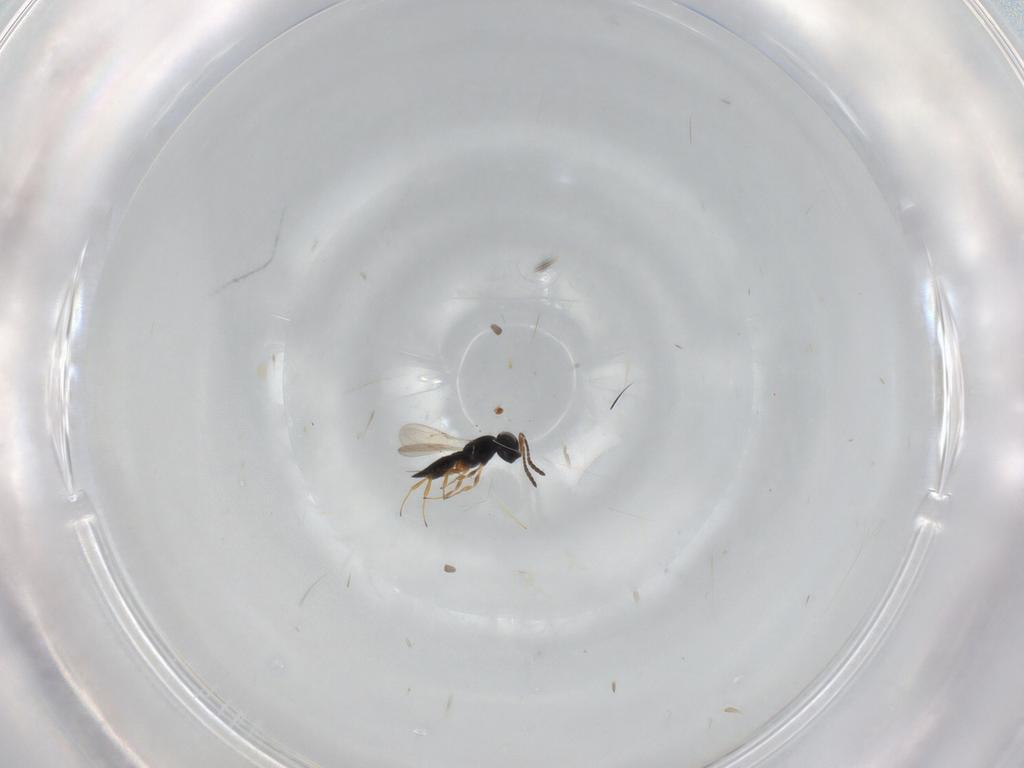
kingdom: Animalia
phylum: Arthropoda
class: Insecta
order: Hymenoptera
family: Scelionidae
